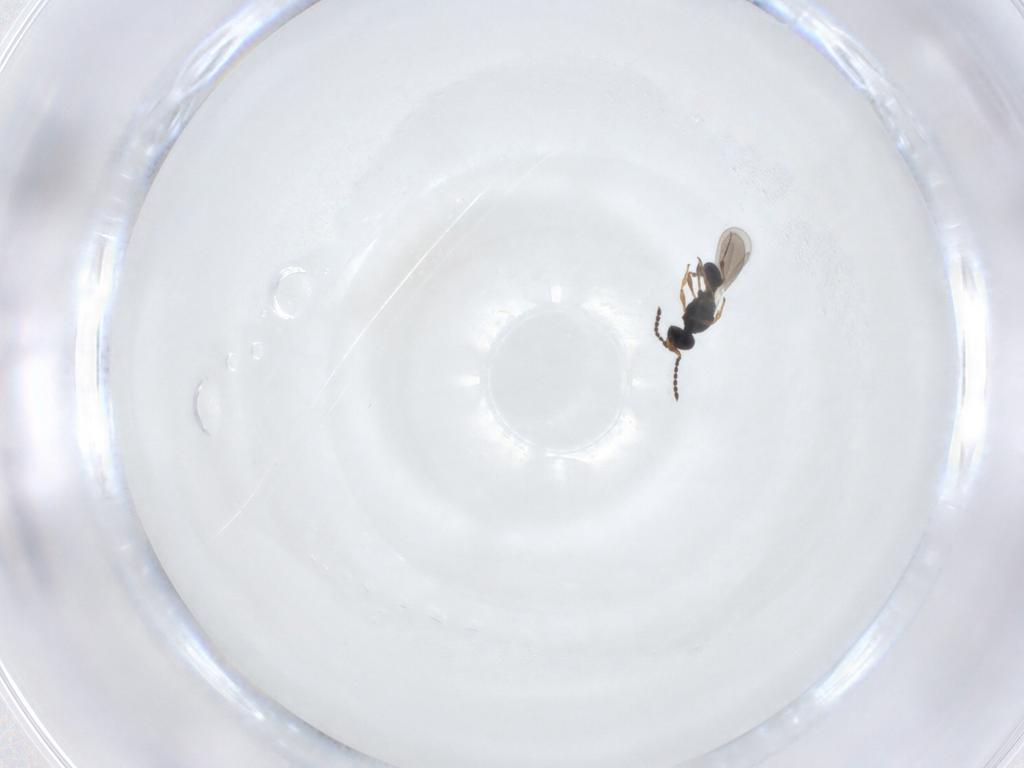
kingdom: Animalia
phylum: Arthropoda
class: Insecta
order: Hymenoptera
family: Platygastridae
